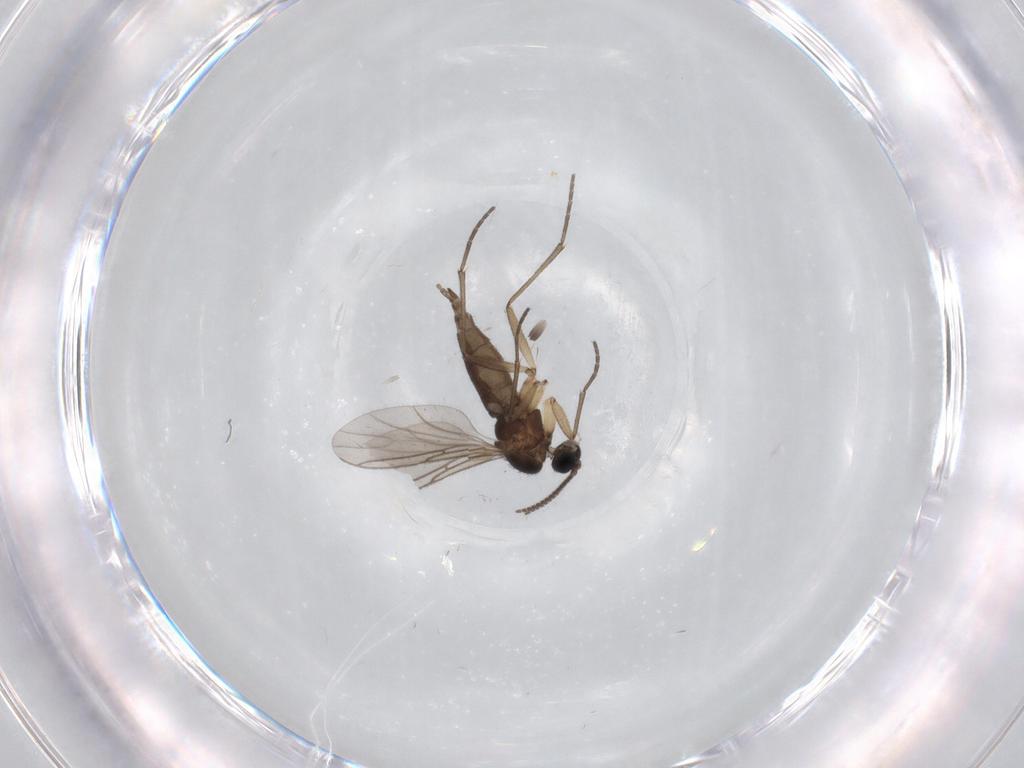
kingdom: Animalia
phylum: Arthropoda
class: Insecta
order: Diptera
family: Sciaridae
